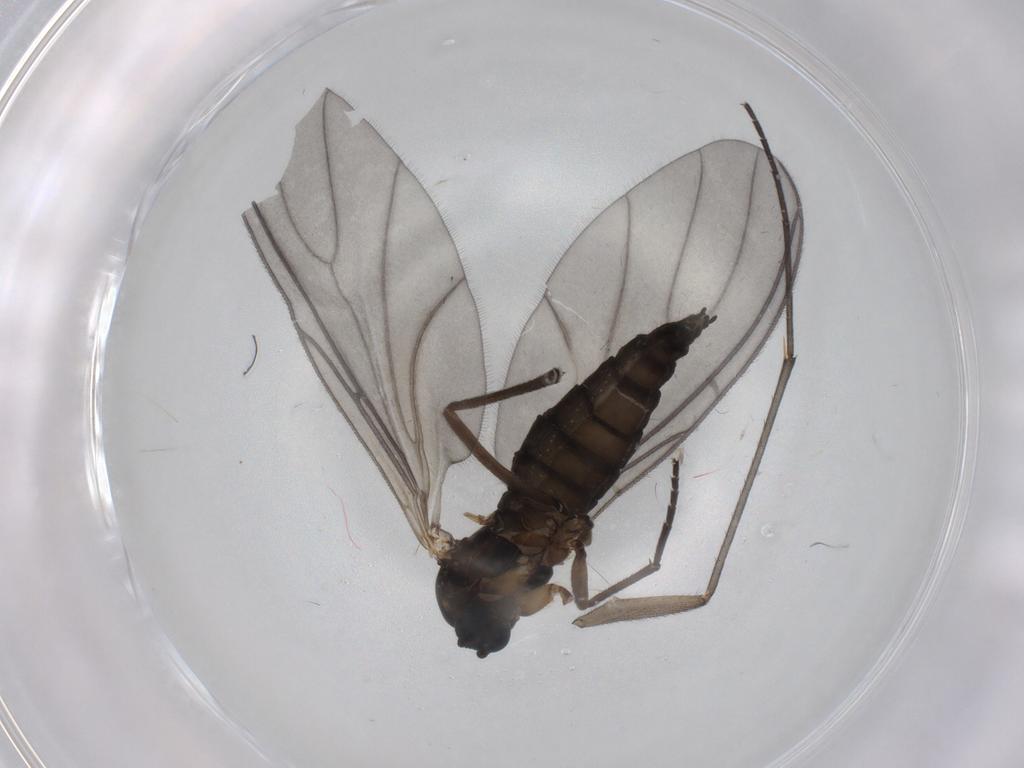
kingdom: Animalia
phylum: Arthropoda
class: Insecta
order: Diptera
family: Sciaridae
